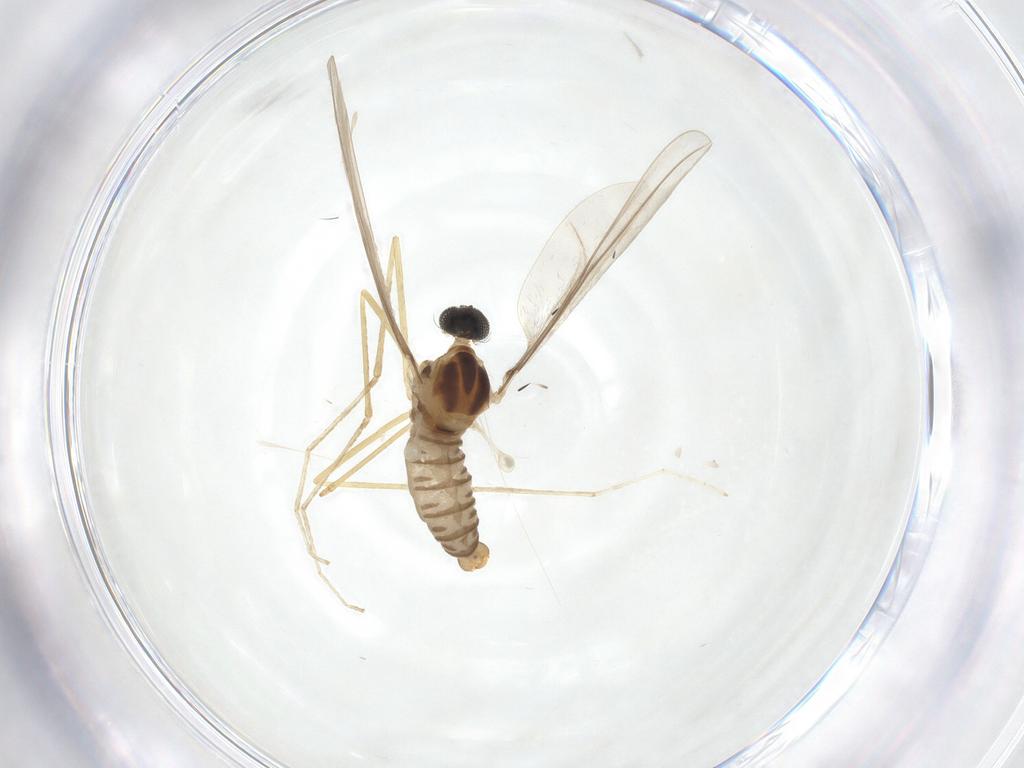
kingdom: Animalia
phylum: Arthropoda
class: Insecta
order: Diptera
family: Cecidomyiidae
